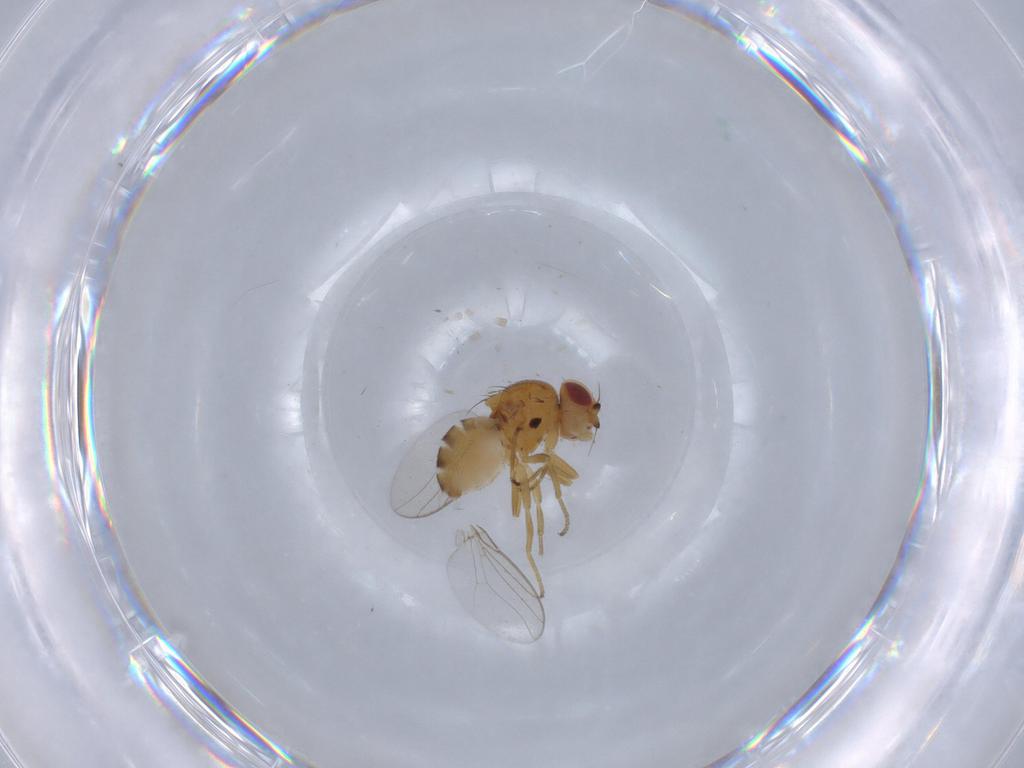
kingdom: Animalia
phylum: Arthropoda
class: Insecta
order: Diptera
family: Chloropidae
